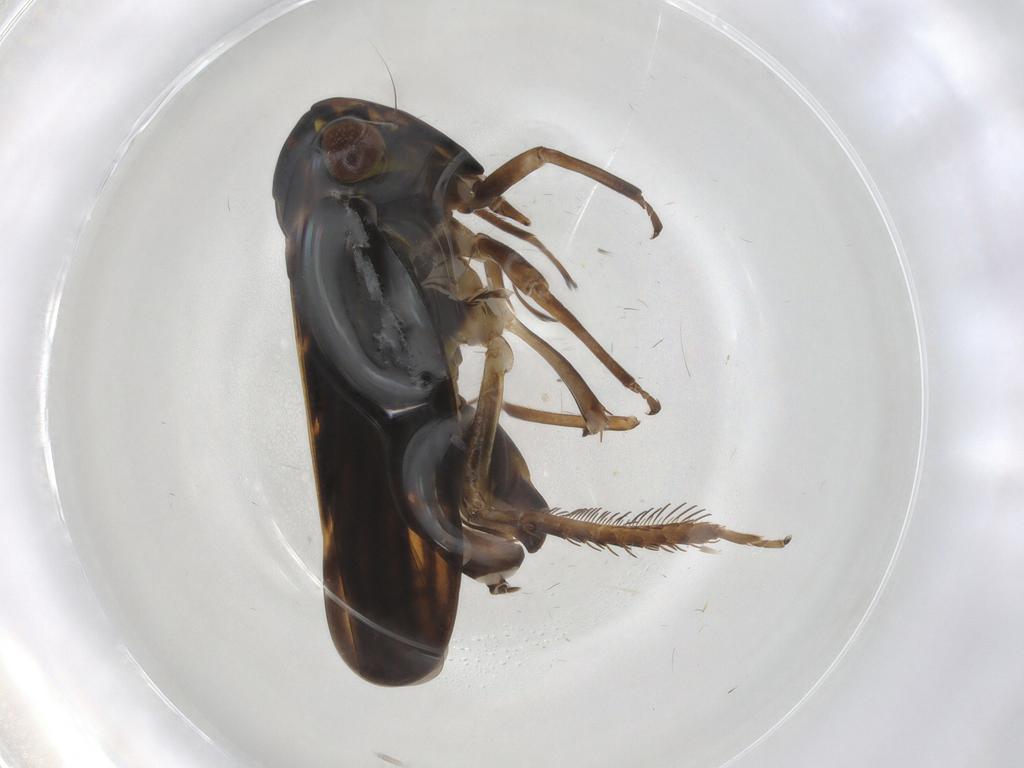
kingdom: Animalia
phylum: Arthropoda
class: Insecta
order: Hemiptera
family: Cicadellidae
